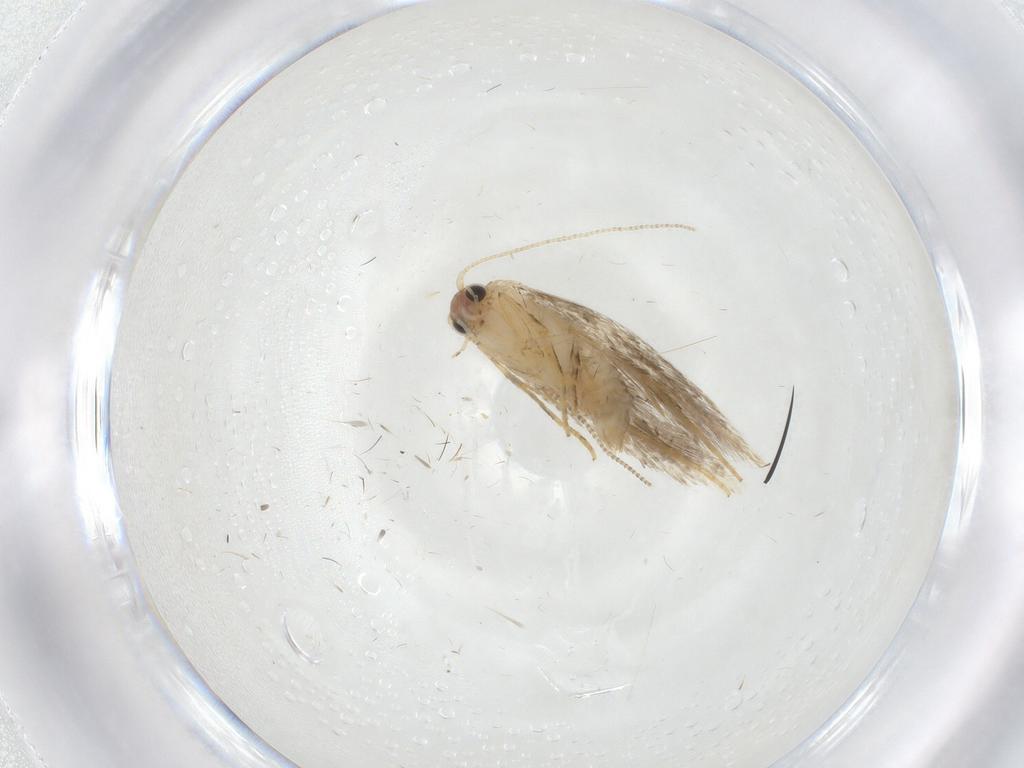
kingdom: Animalia
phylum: Arthropoda
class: Insecta
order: Lepidoptera
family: Tineidae
